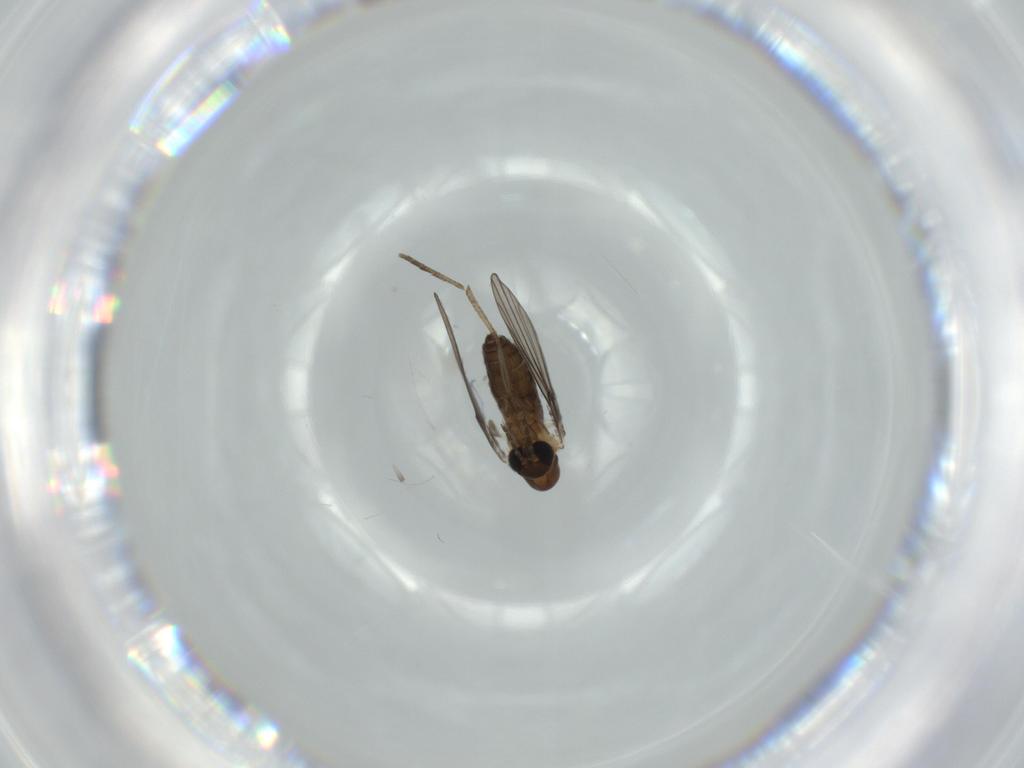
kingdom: Animalia
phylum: Arthropoda
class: Insecta
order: Diptera
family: Psychodidae
